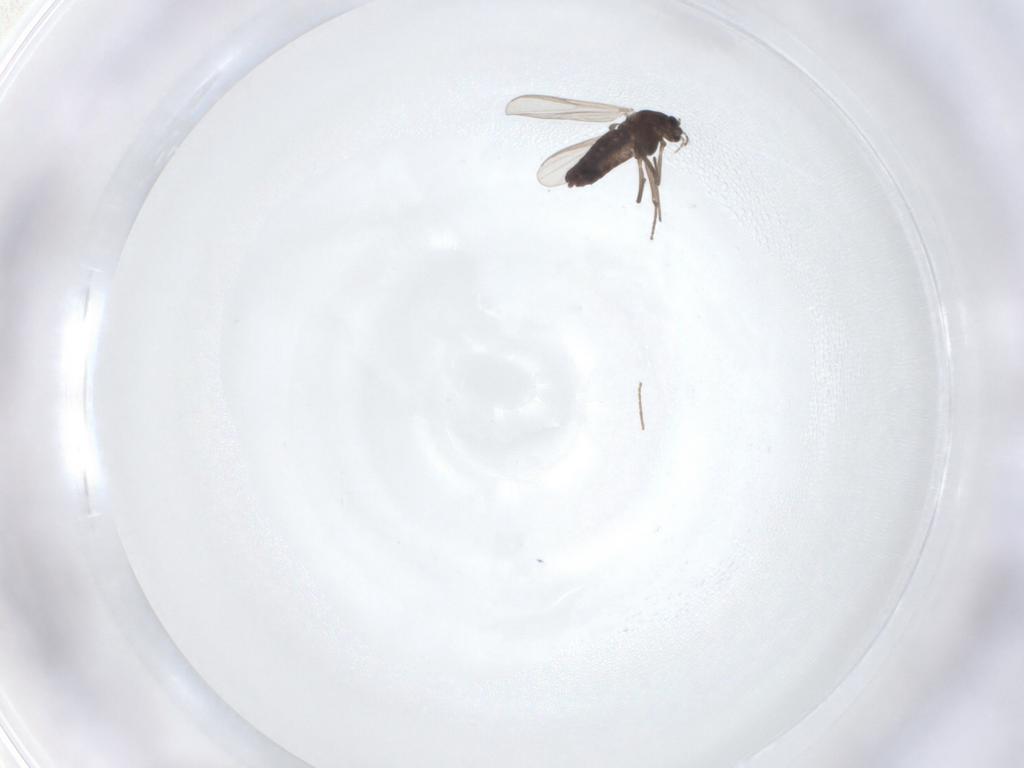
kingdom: Animalia
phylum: Arthropoda
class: Insecta
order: Diptera
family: Chironomidae
